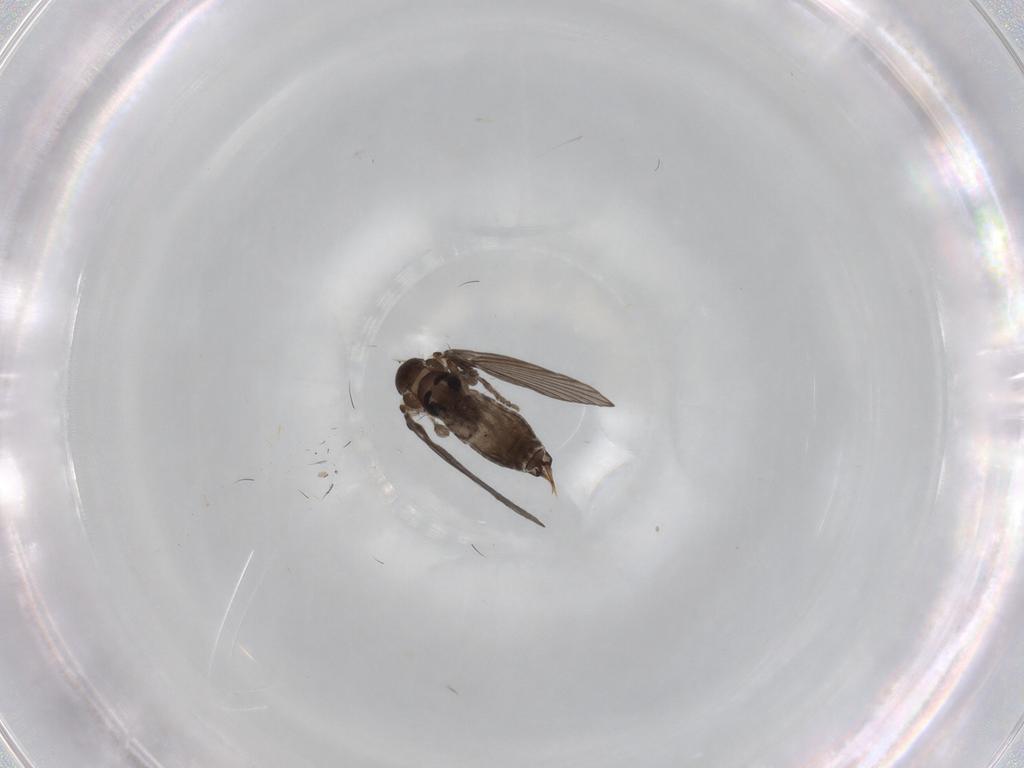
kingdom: Animalia
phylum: Arthropoda
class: Insecta
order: Diptera
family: Psychodidae
